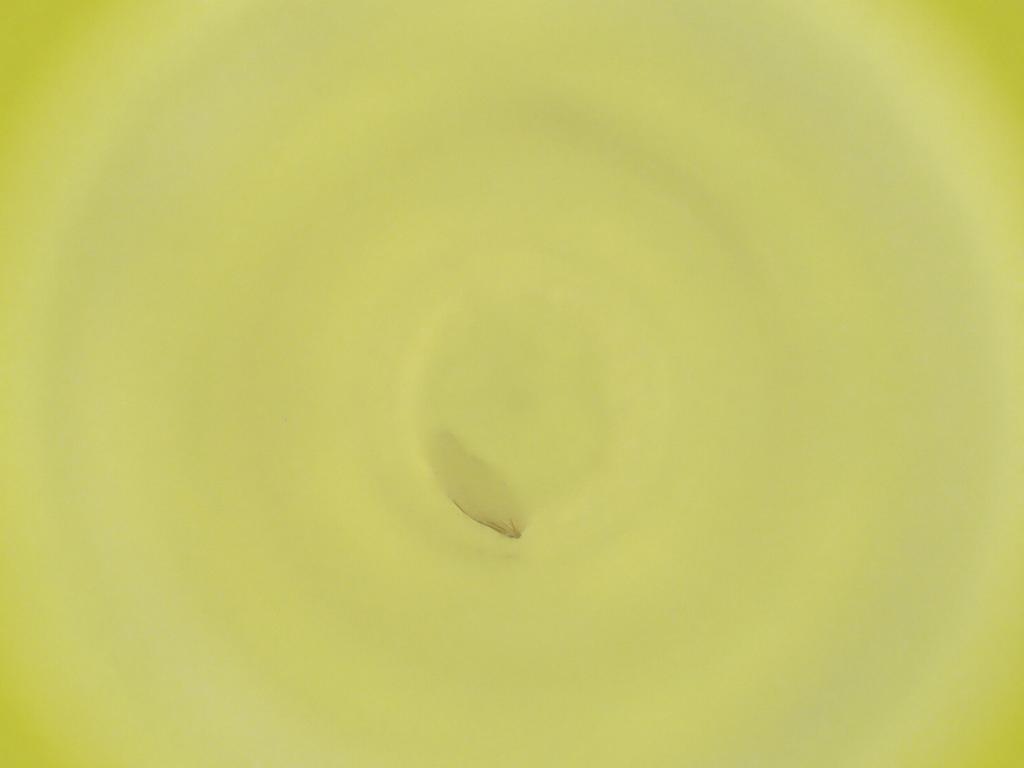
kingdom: Animalia
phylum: Arthropoda
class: Insecta
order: Diptera
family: Cecidomyiidae
